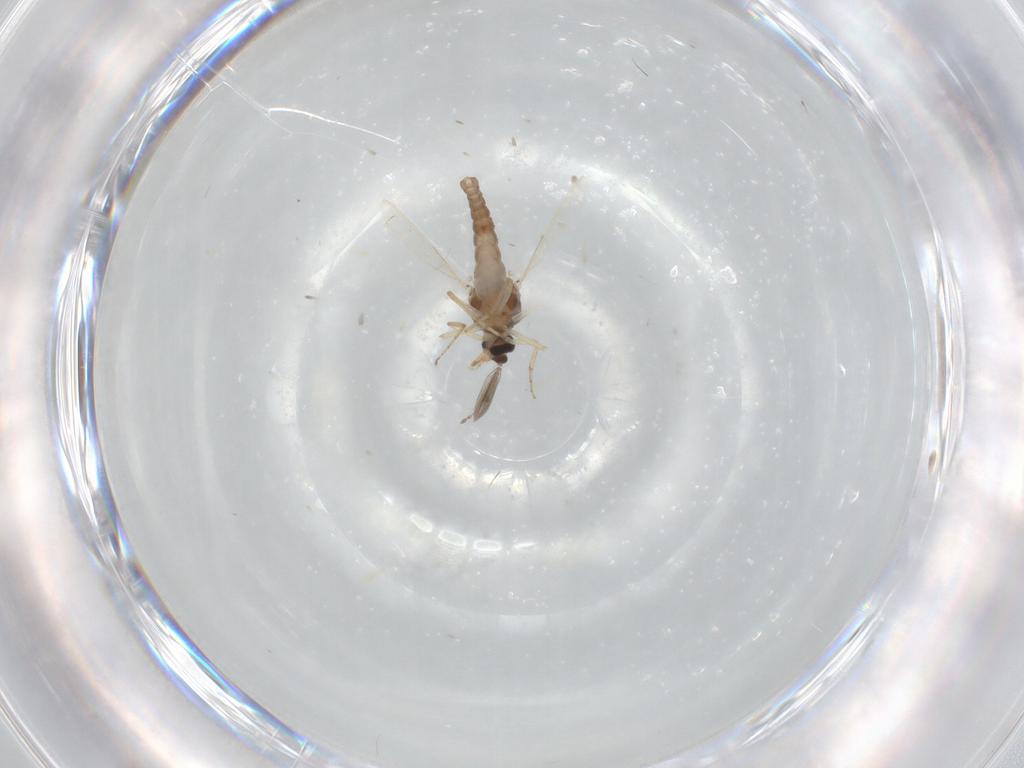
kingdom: Animalia
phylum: Arthropoda
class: Insecta
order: Diptera
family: Ceratopogonidae
